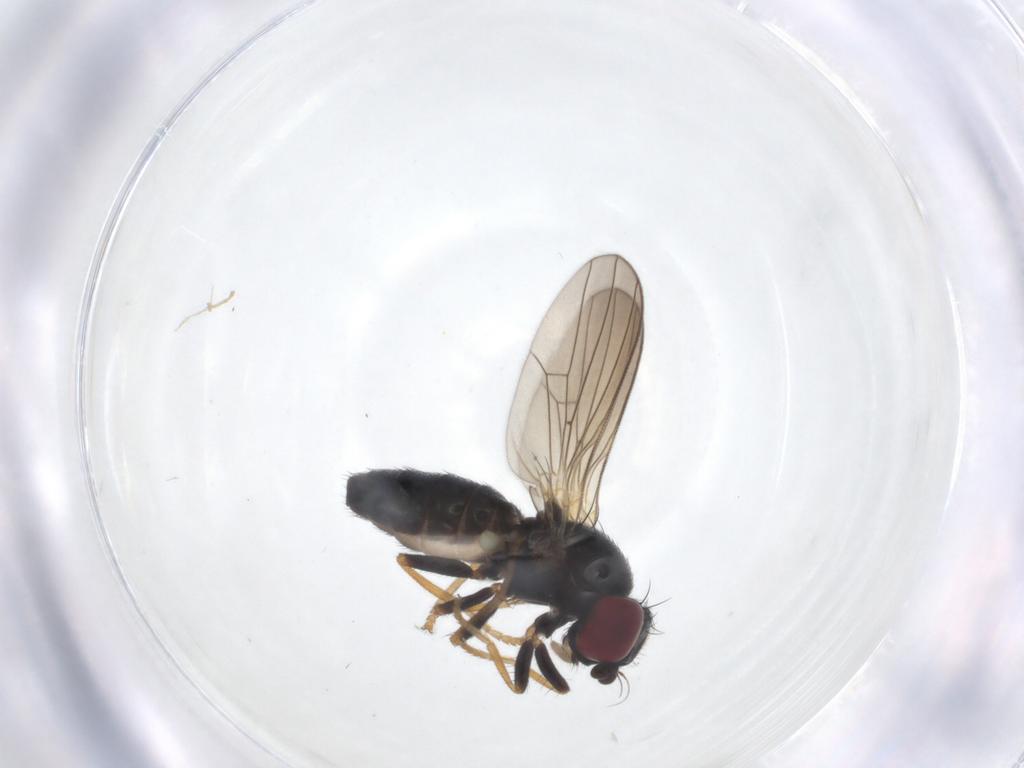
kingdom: Animalia
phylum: Arthropoda
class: Insecta
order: Diptera
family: Chamaemyiidae
